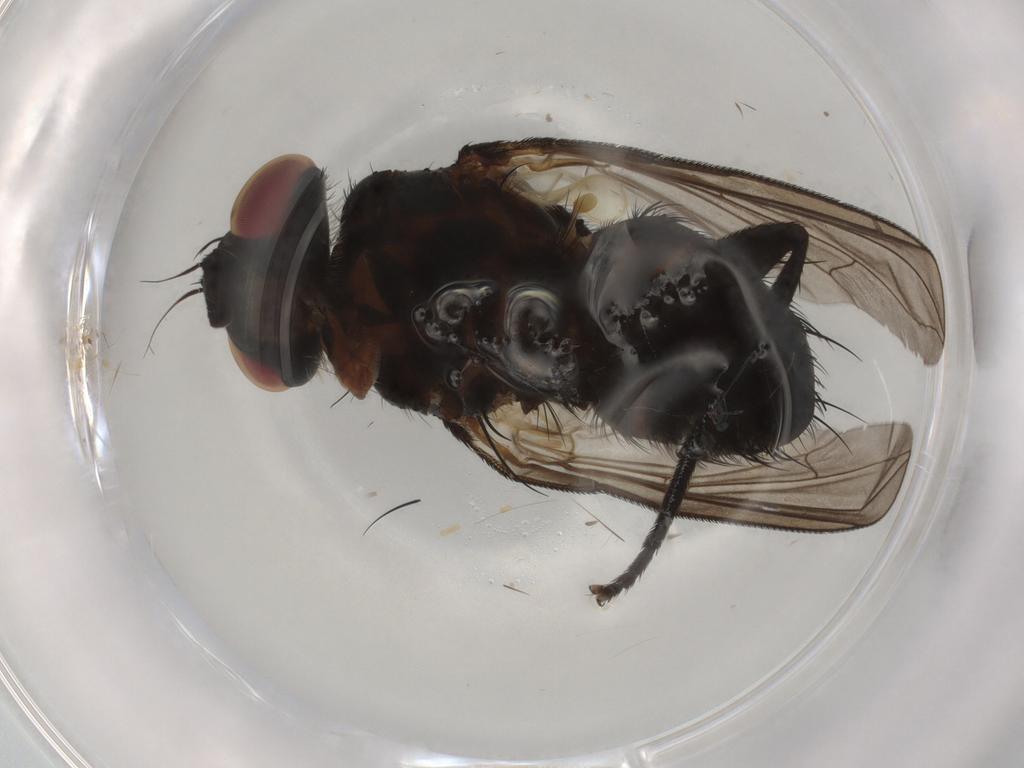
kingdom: Animalia
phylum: Arthropoda
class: Insecta
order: Diptera
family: Tachinidae
